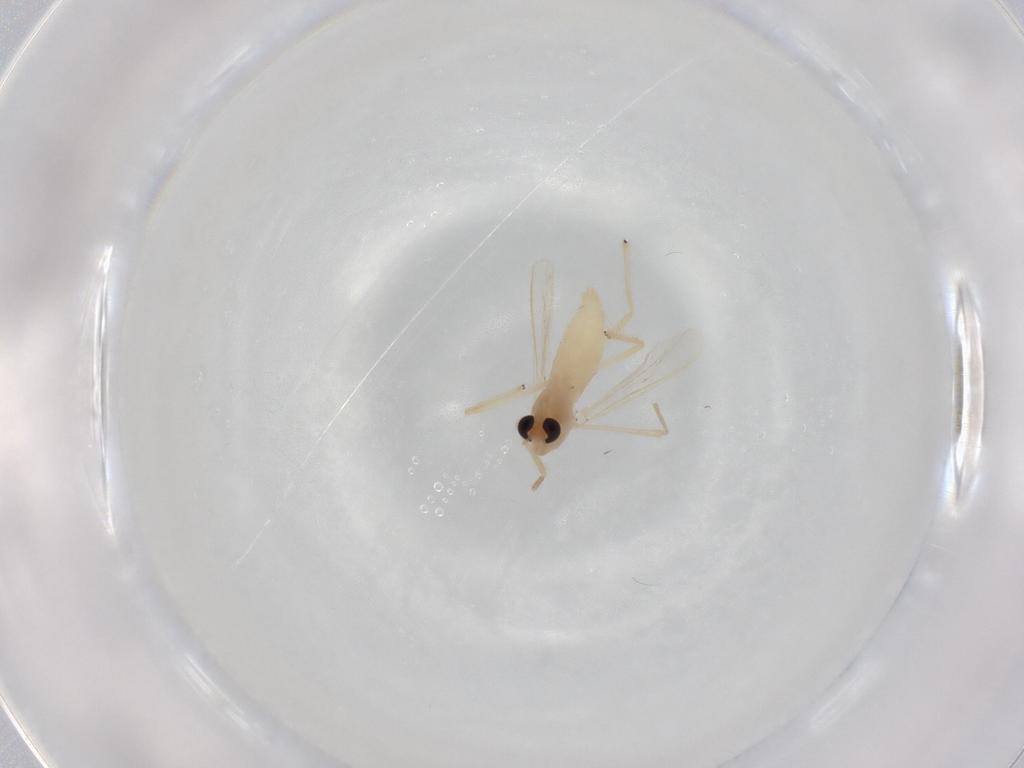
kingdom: Animalia
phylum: Arthropoda
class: Insecta
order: Diptera
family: Chironomidae
